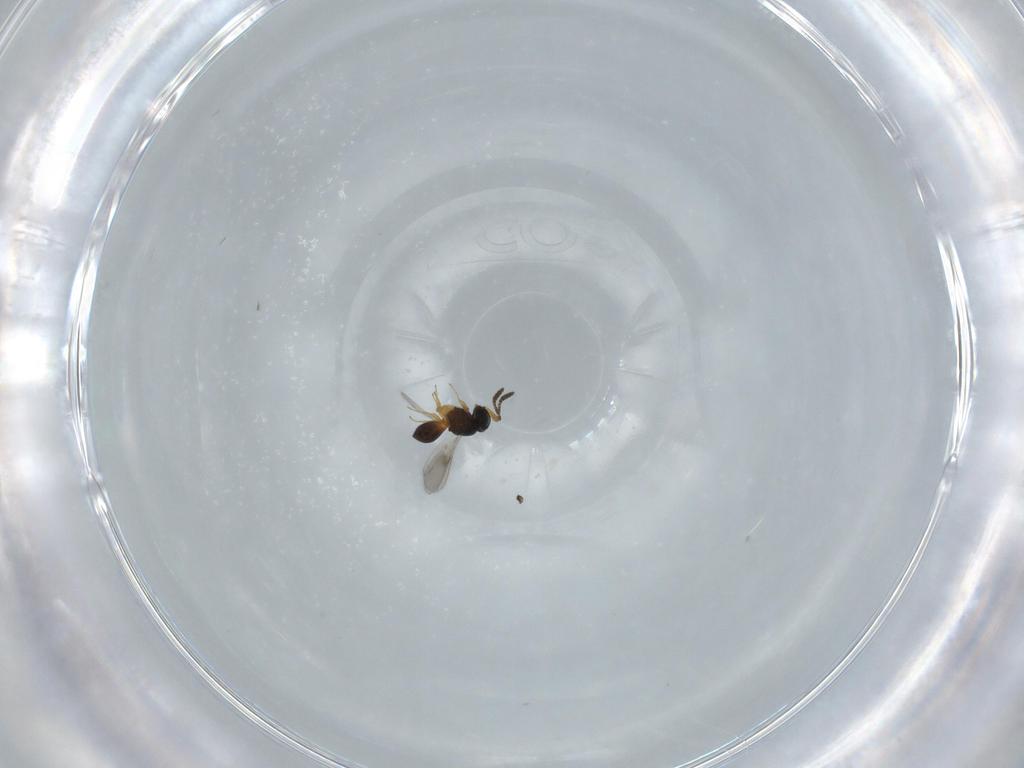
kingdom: Animalia
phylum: Arthropoda
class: Insecta
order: Hymenoptera
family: Scelionidae
